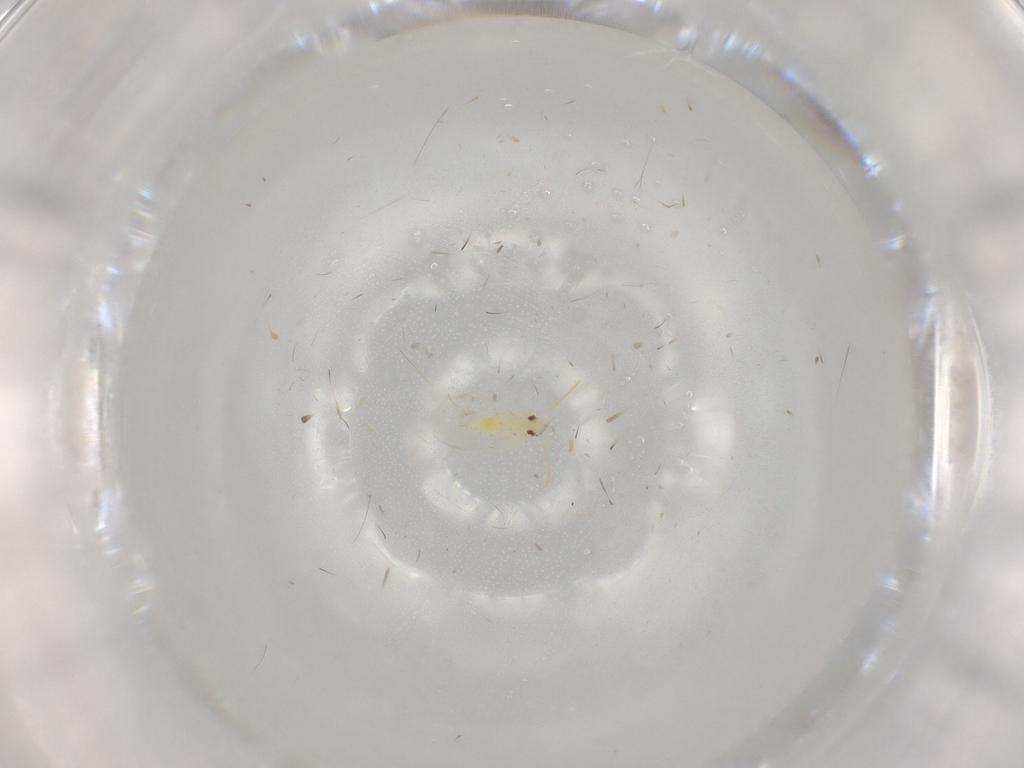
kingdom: Animalia
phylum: Arthropoda
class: Insecta
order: Hemiptera
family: Aleyrodidae
